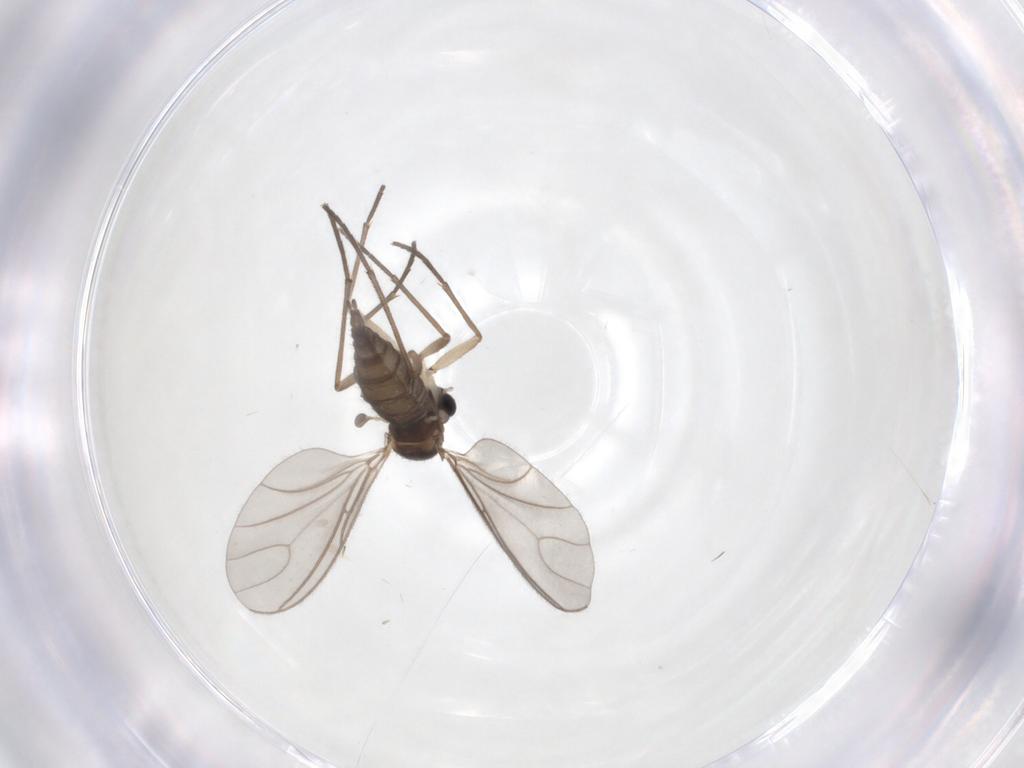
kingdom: Animalia
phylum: Arthropoda
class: Insecta
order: Diptera
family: Sciaridae
